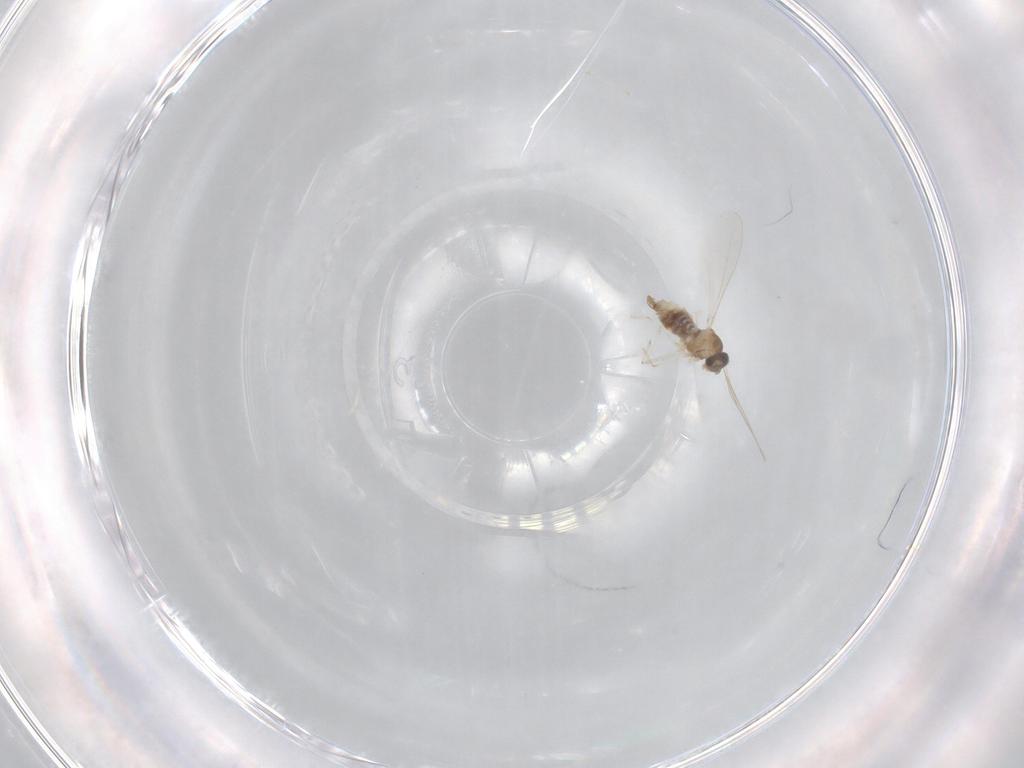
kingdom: Animalia
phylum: Arthropoda
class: Insecta
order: Diptera
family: Cecidomyiidae
